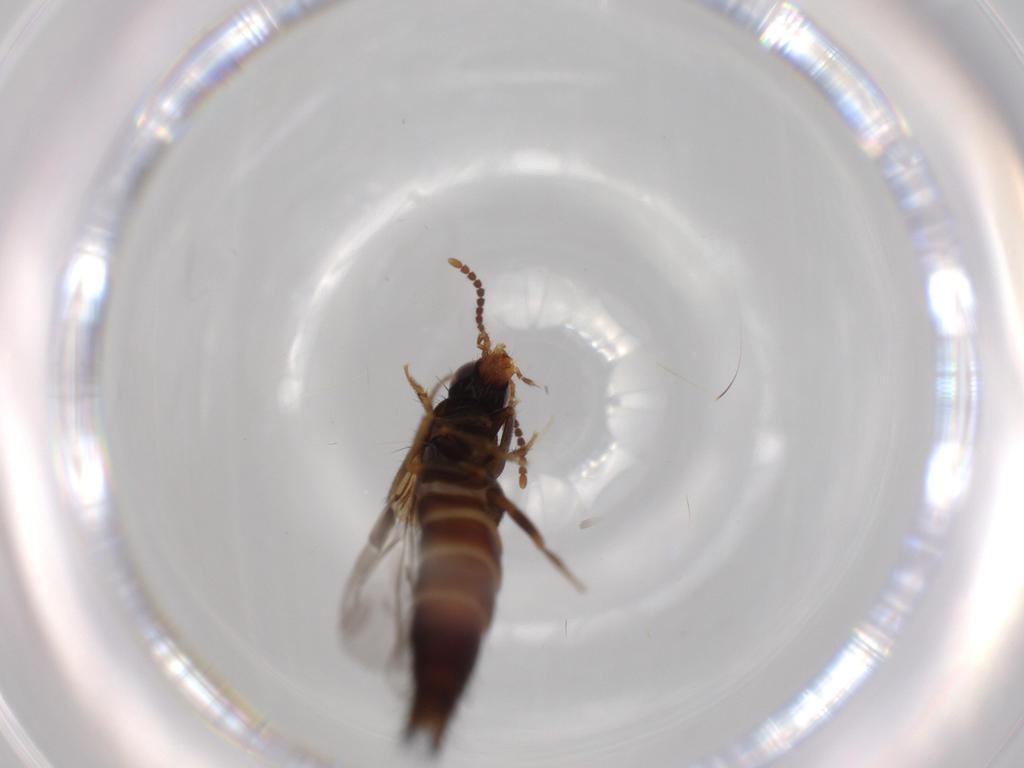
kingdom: Animalia
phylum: Arthropoda
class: Insecta
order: Coleoptera
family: Staphylinidae
